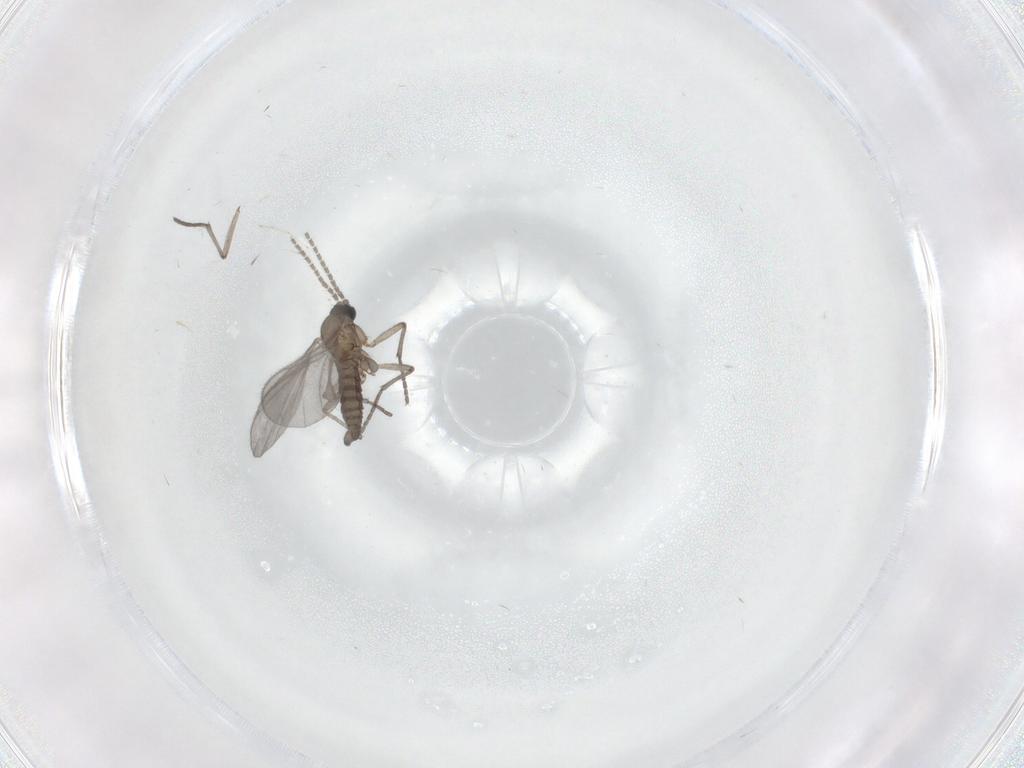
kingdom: Animalia
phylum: Arthropoda
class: Insecta
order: Diptera
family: Sciaridae
